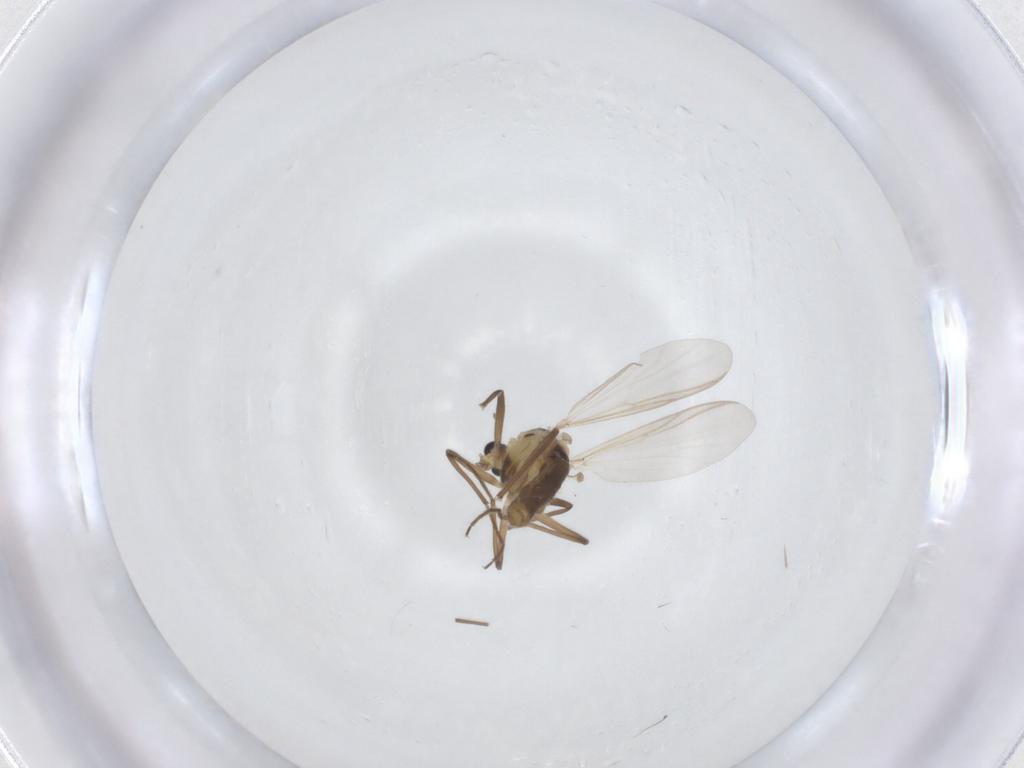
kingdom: Animalia
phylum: Arthropoda
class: Insecta
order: Diptera
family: Chironomidae
